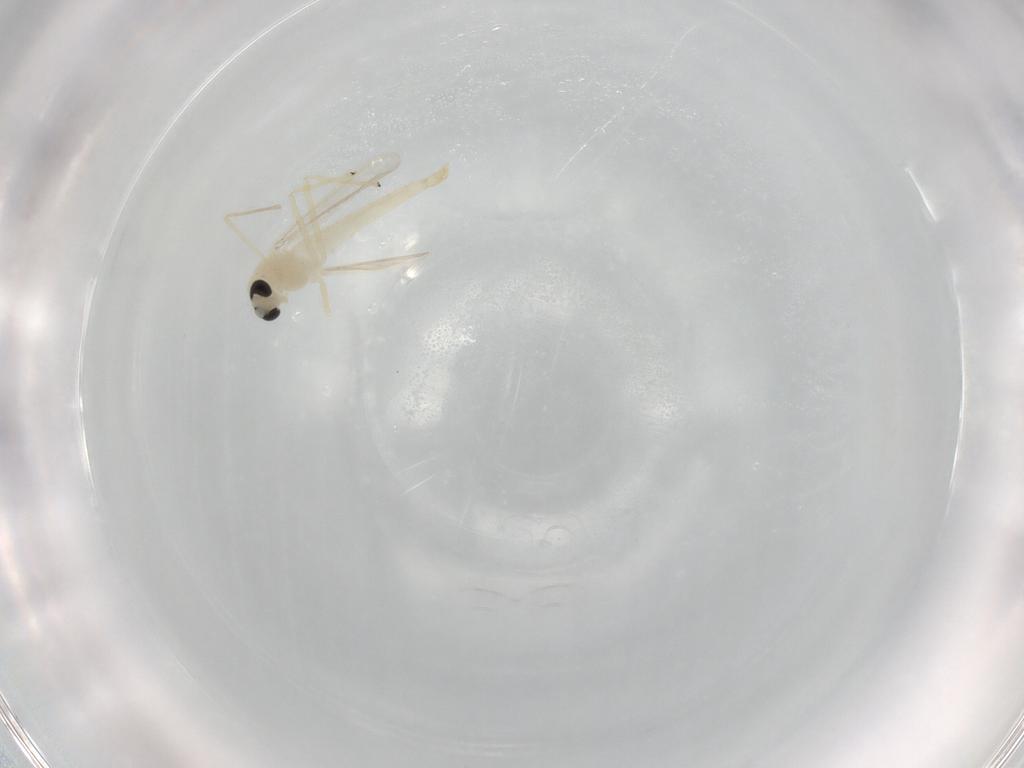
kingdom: Animalia
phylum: Arthropoda
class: Insecta
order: Diptera
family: Chironomidae
